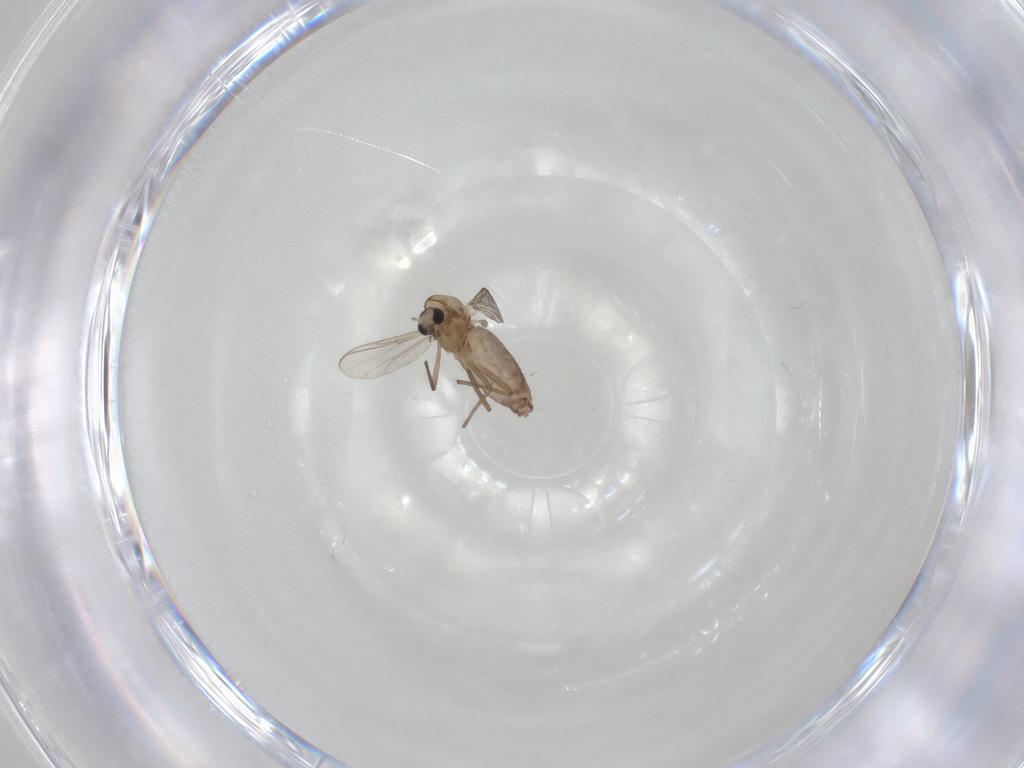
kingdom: Animalia
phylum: Arthropoda
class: Insecta
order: Diptera
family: Chironomidae
